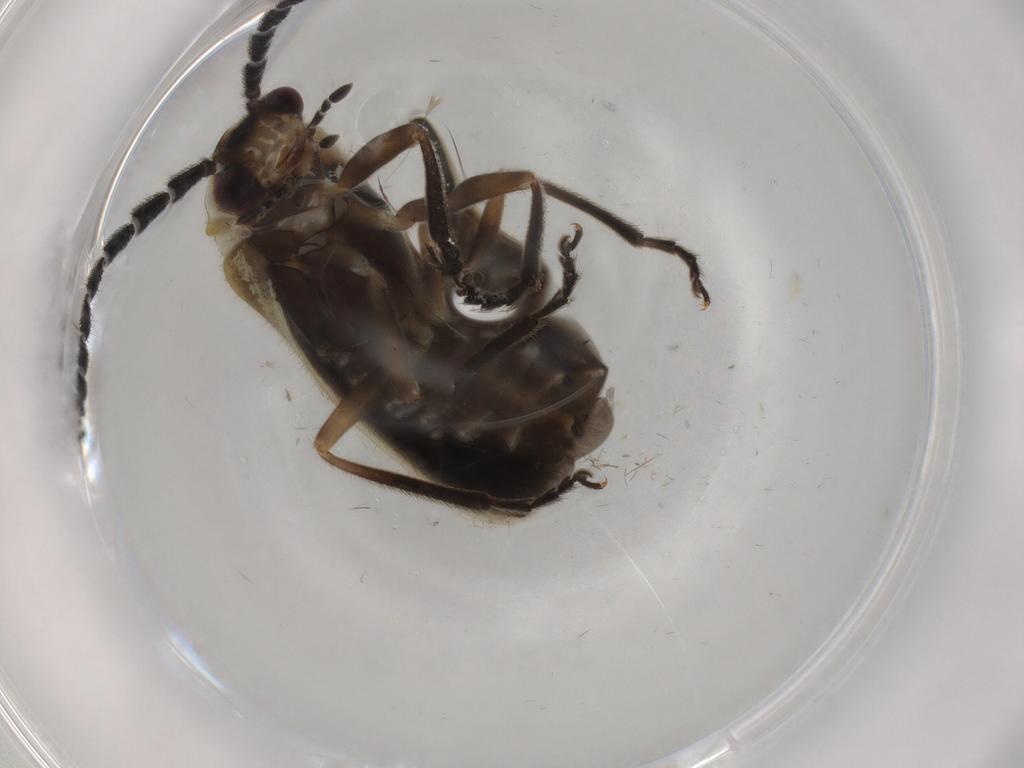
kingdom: Animalia
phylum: Arthropoda
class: Insecta
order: Coleoptera
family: Cantharidae
